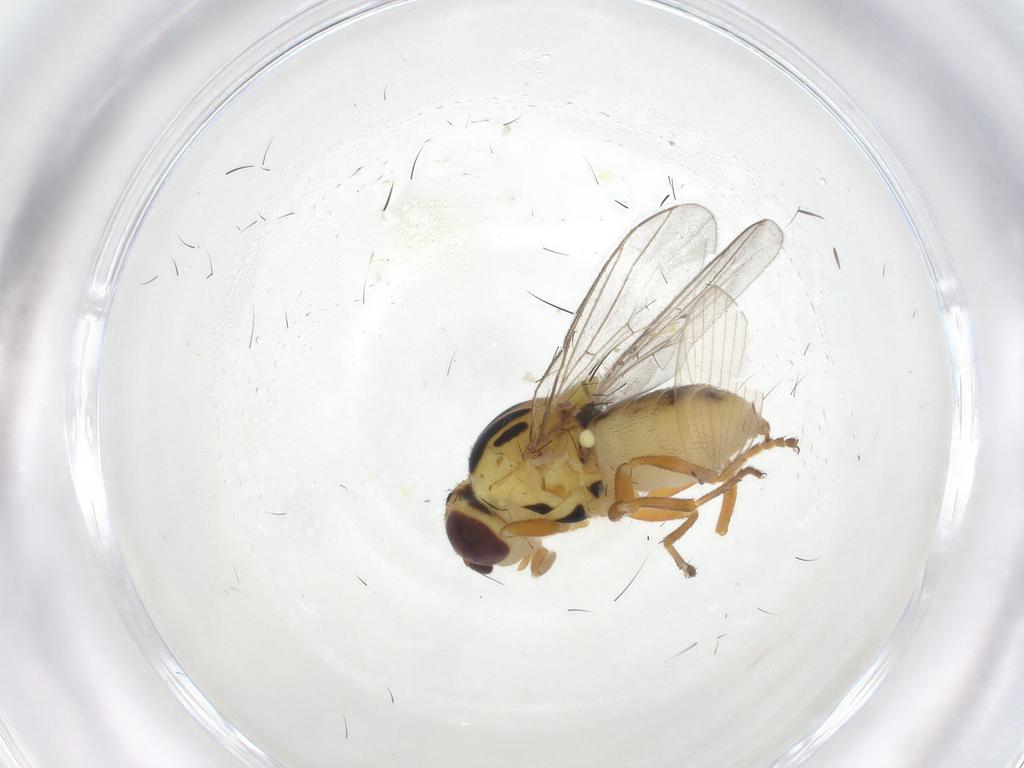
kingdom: Animalia
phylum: Arthropoda
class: Insecta
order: Diptera
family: Chloropidae
